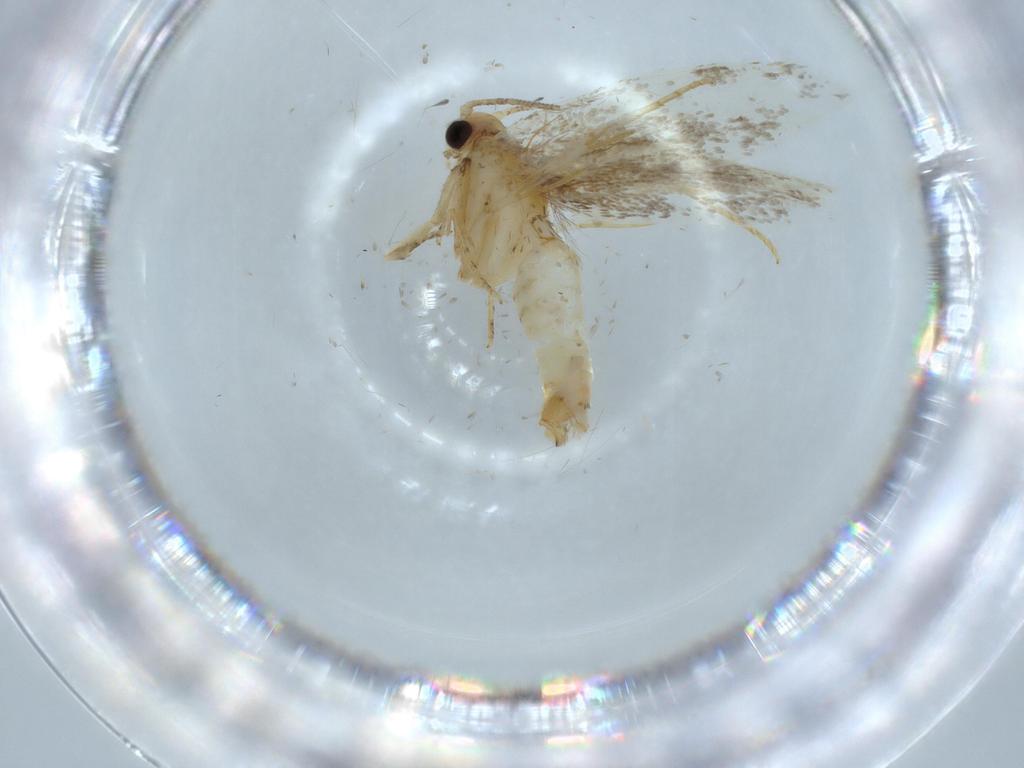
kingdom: Animalia
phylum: Arthropoda
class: Insecta
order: Lepidoptera
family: Tineidae
